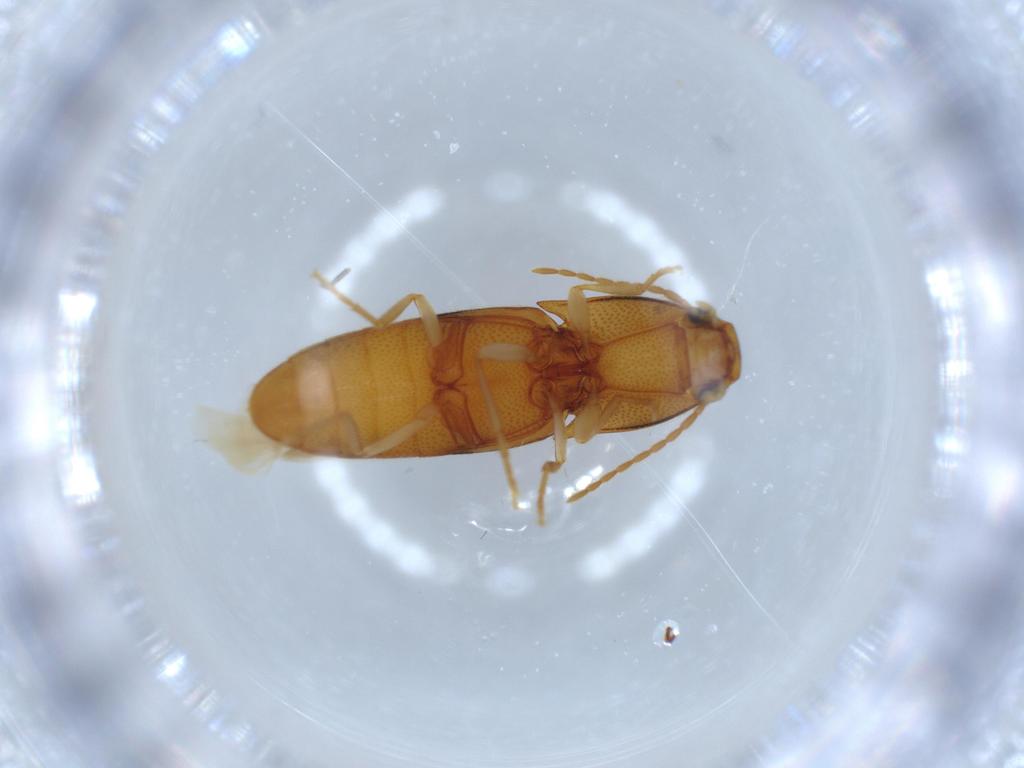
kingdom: Animalia
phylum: Arthropoda
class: Insecta
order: Coleoptera
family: Elateridae
